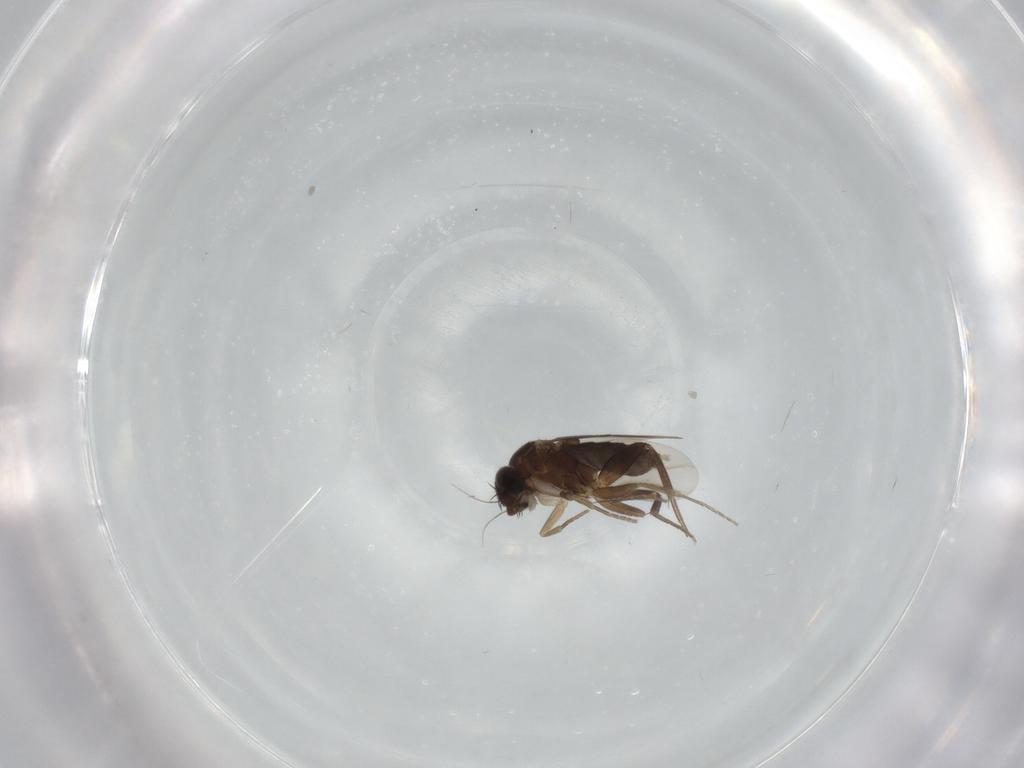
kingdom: Animalia
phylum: Arthropoda
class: Insecta
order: Diptera
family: Phoridae
